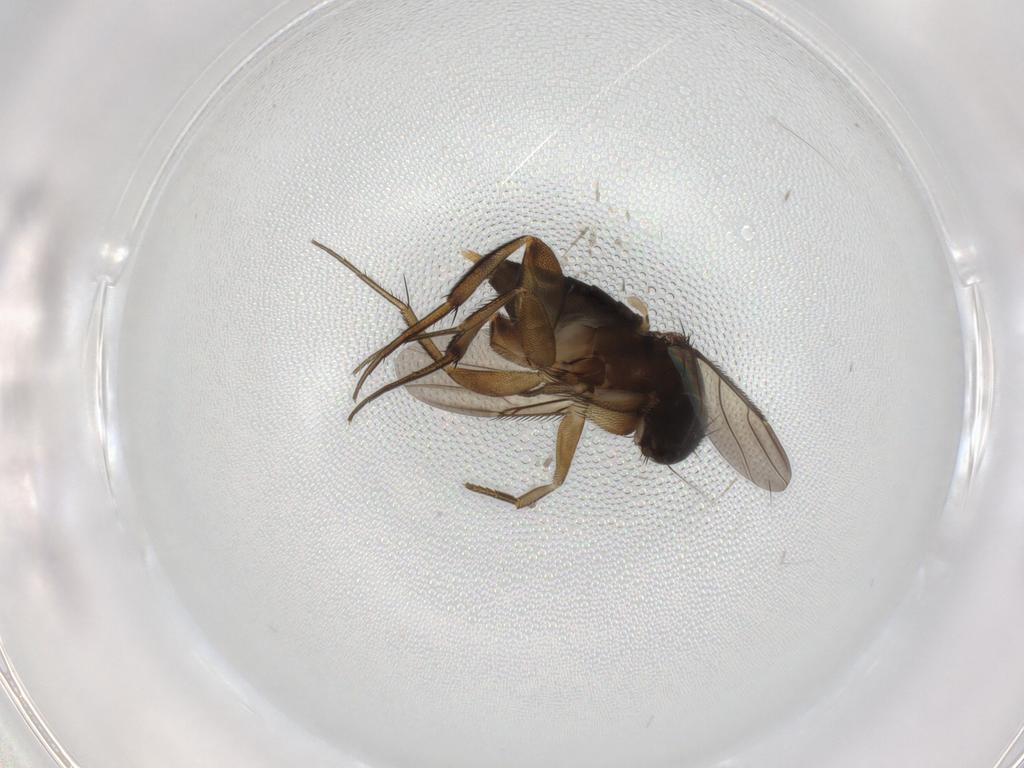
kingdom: Animalia
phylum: Arthropoda
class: Insecta
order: Diptera
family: Phoridae
